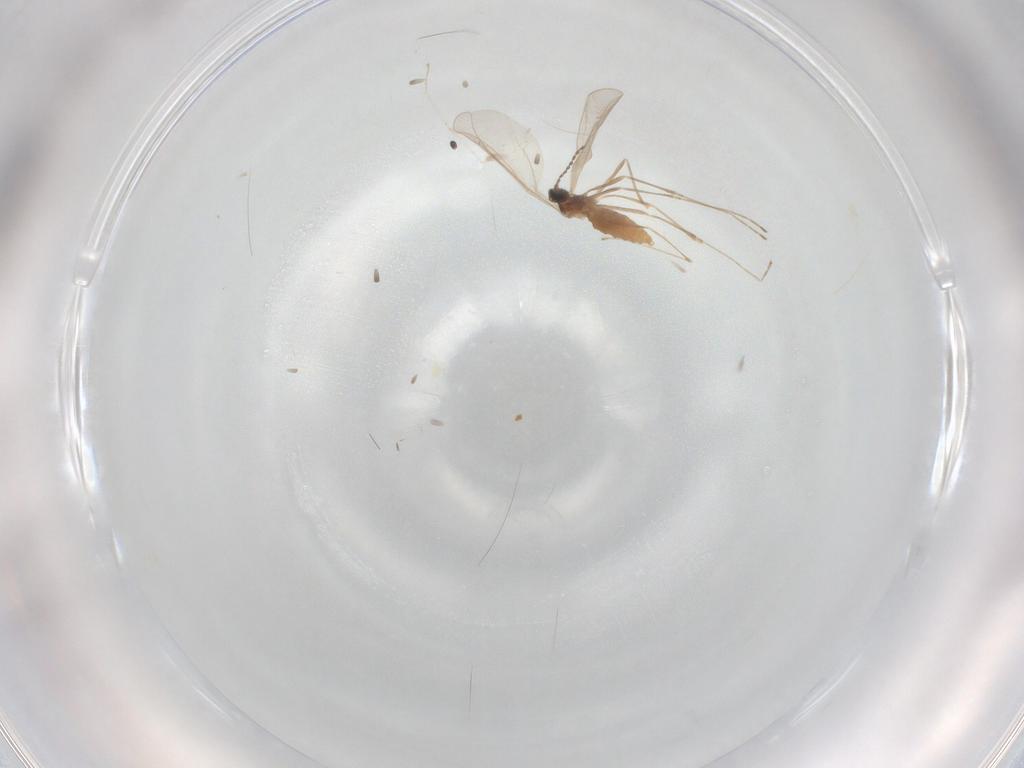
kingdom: Animalia
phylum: Arthropoda
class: Insecta
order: Diptera
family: Cecidomyiidae
